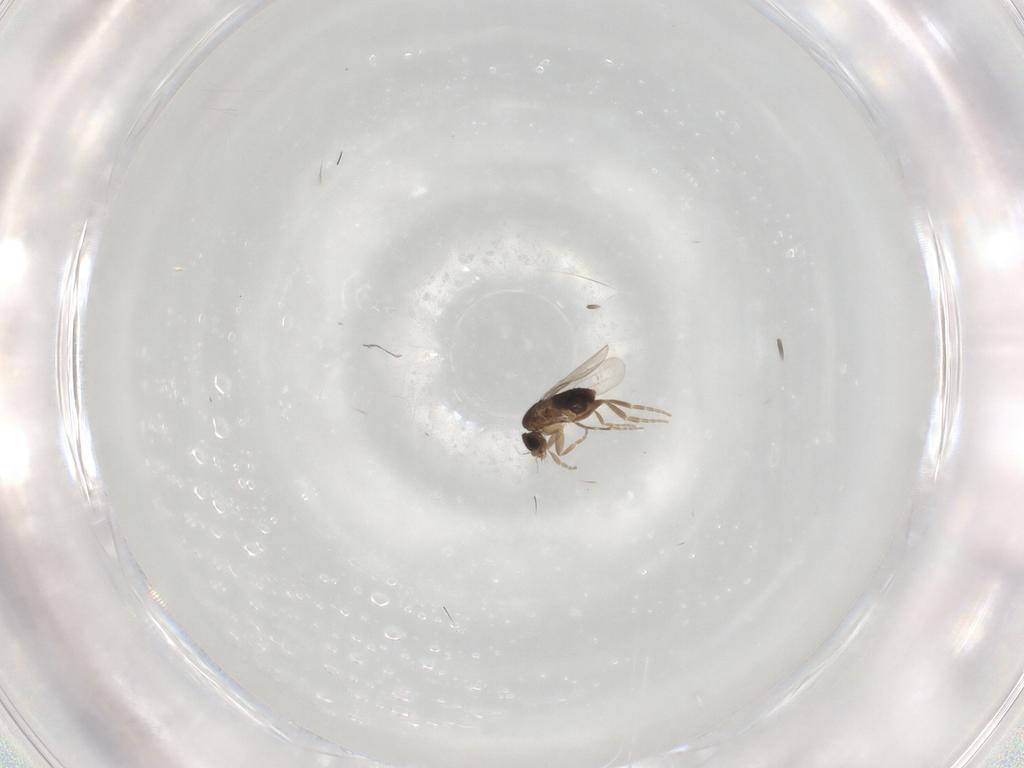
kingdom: Animalia
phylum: Arthropoda
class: Insecta
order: Diptera
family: Phoridae
